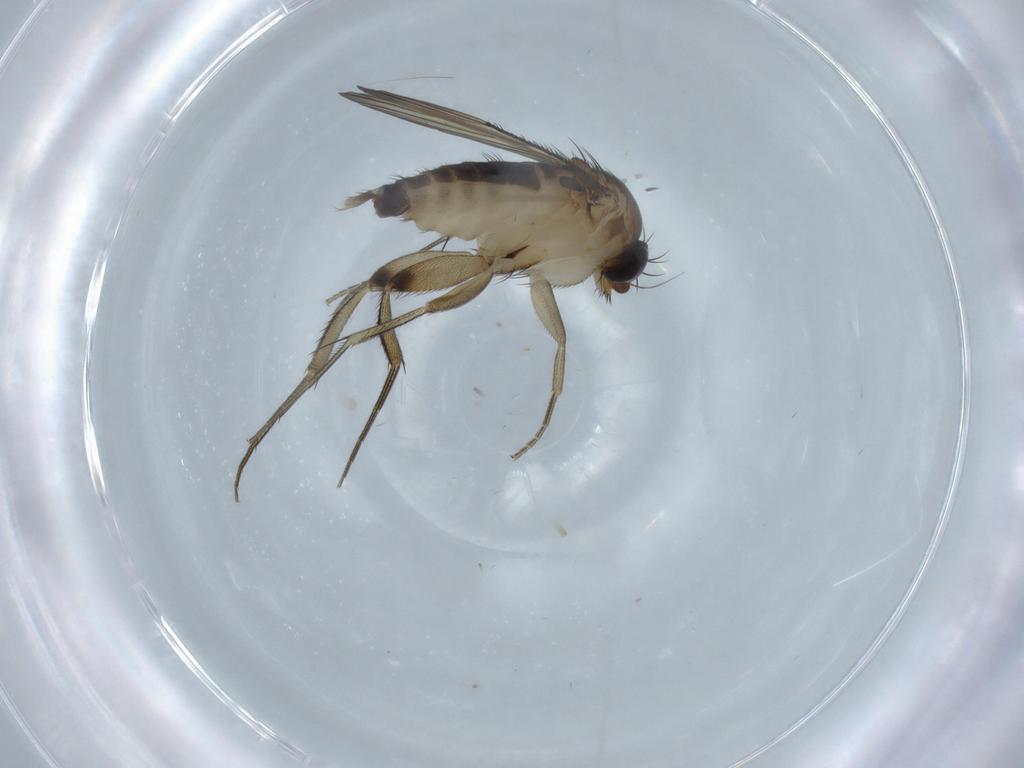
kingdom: Animalia
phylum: Arthropoda
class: Insecta
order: Diptera
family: Phoridae
